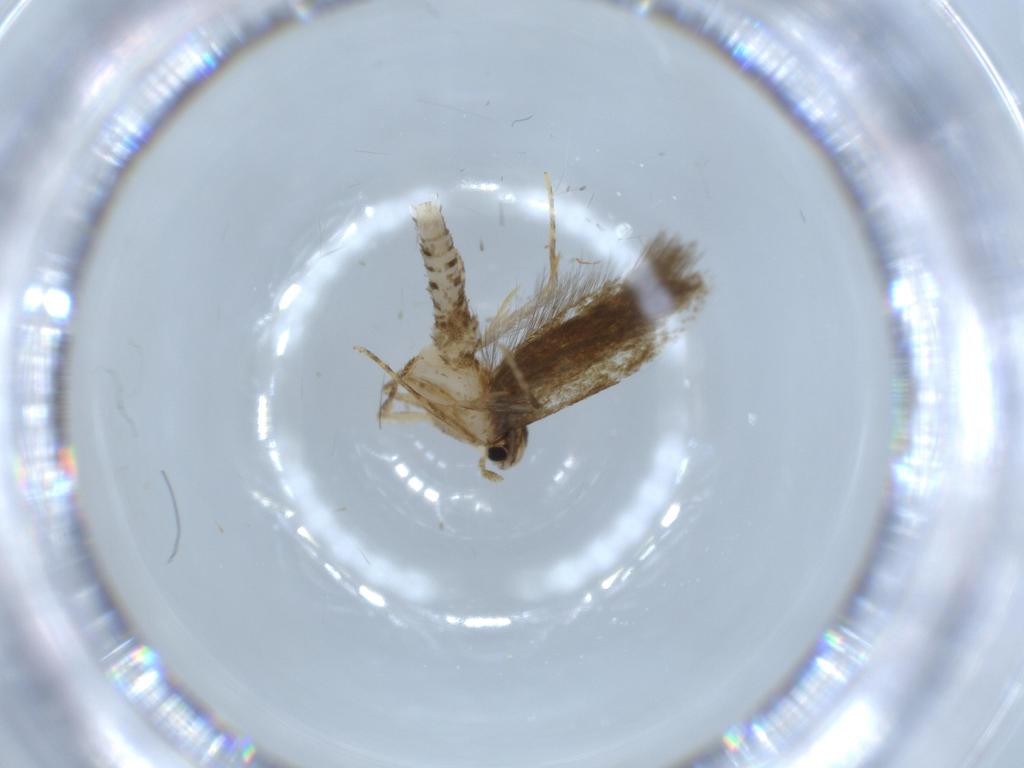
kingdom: Animalia
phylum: Arthropoda
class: Insecta
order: Lepidoptera
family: Tineidae
